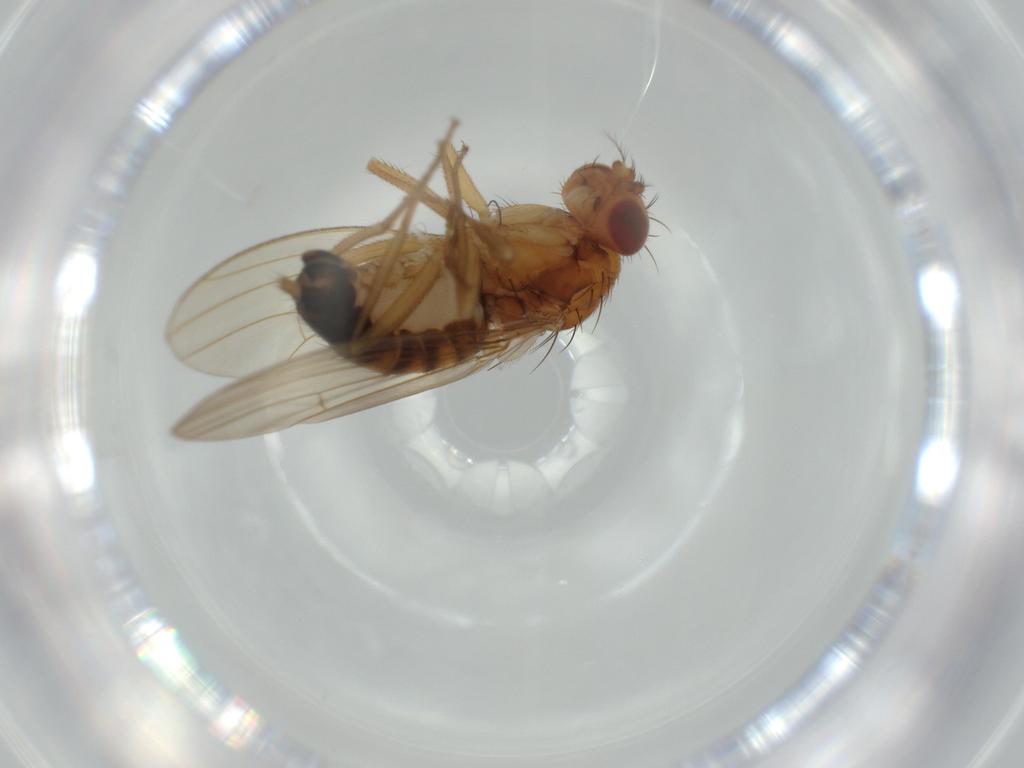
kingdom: Animalia
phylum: Arthropoda
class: Insecta
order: Diptera
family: Drosophilidae
